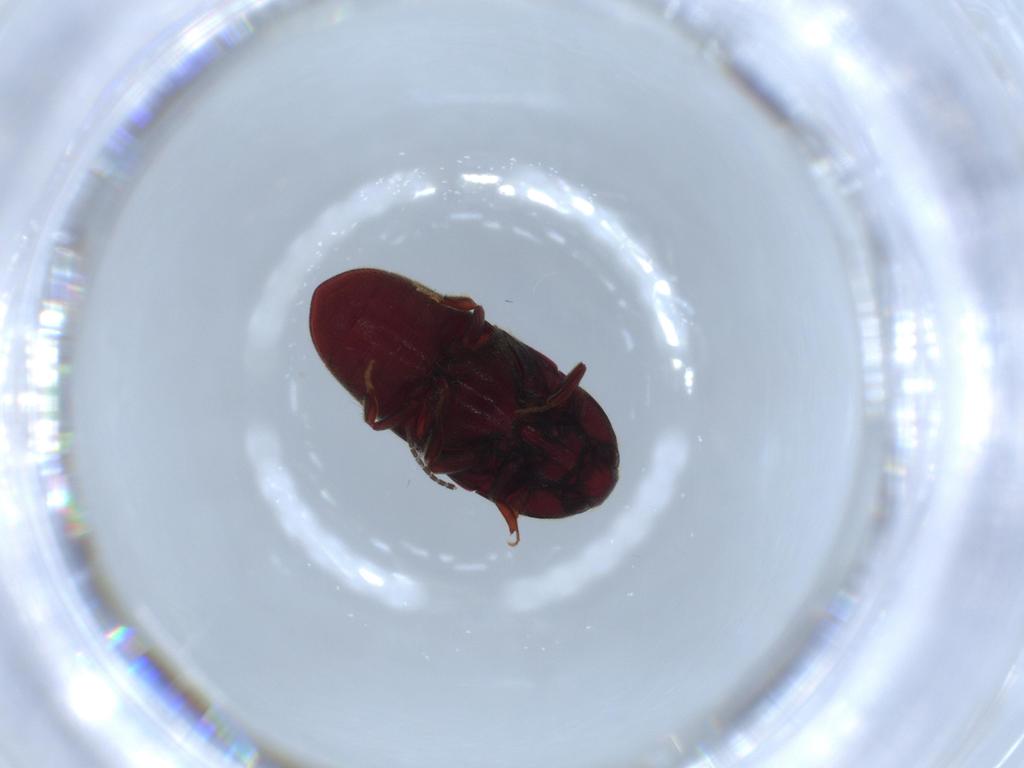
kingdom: Animalia
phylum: Arthropoda
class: Insecta
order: Coleoptera
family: Throscidae
